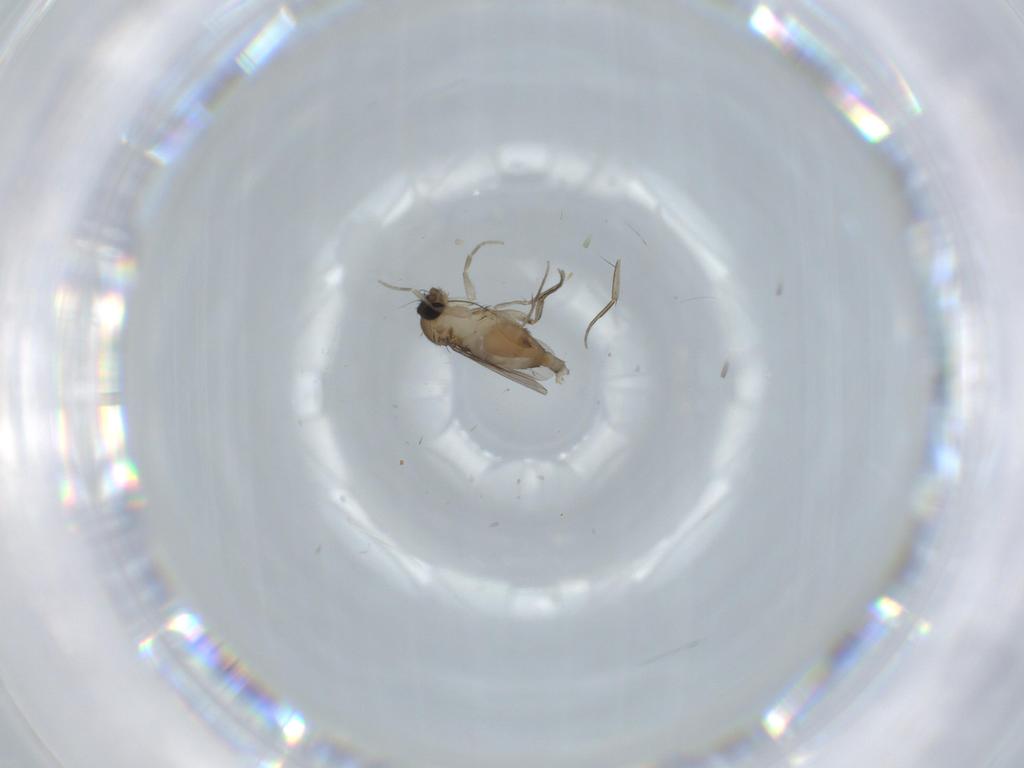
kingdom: Animalia
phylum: Arthropoda
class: Insecta
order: Diptera
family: Phoridae
